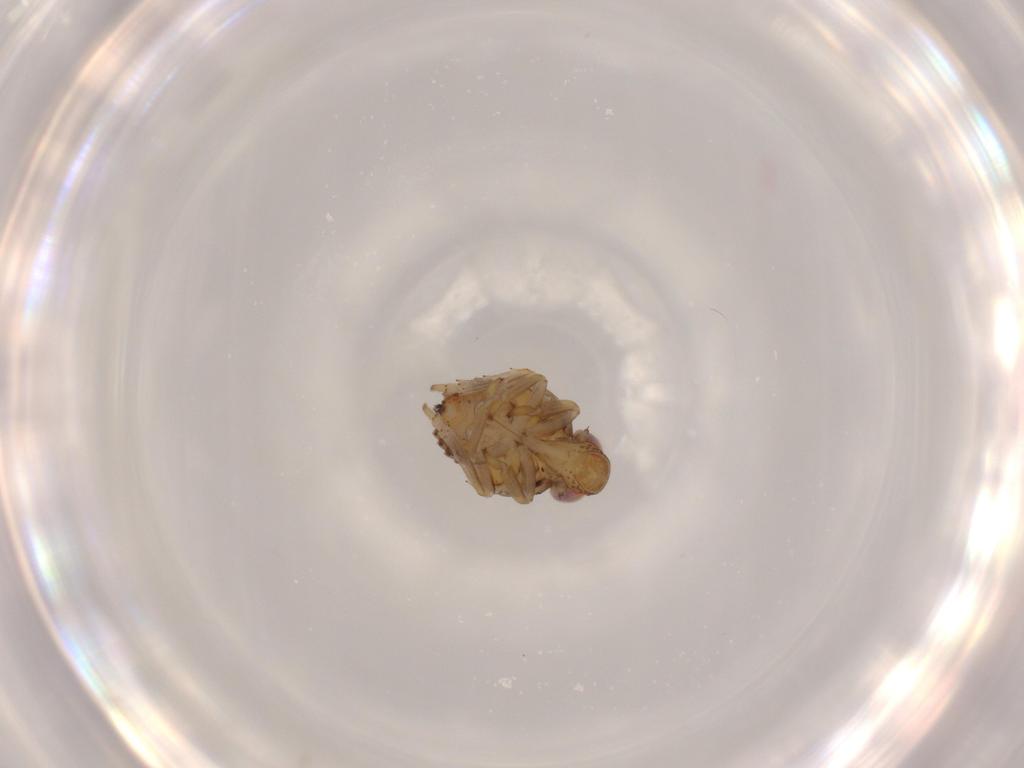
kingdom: Animalia
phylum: Arthropoda
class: Insecta
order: Hemiptera
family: Issidae
